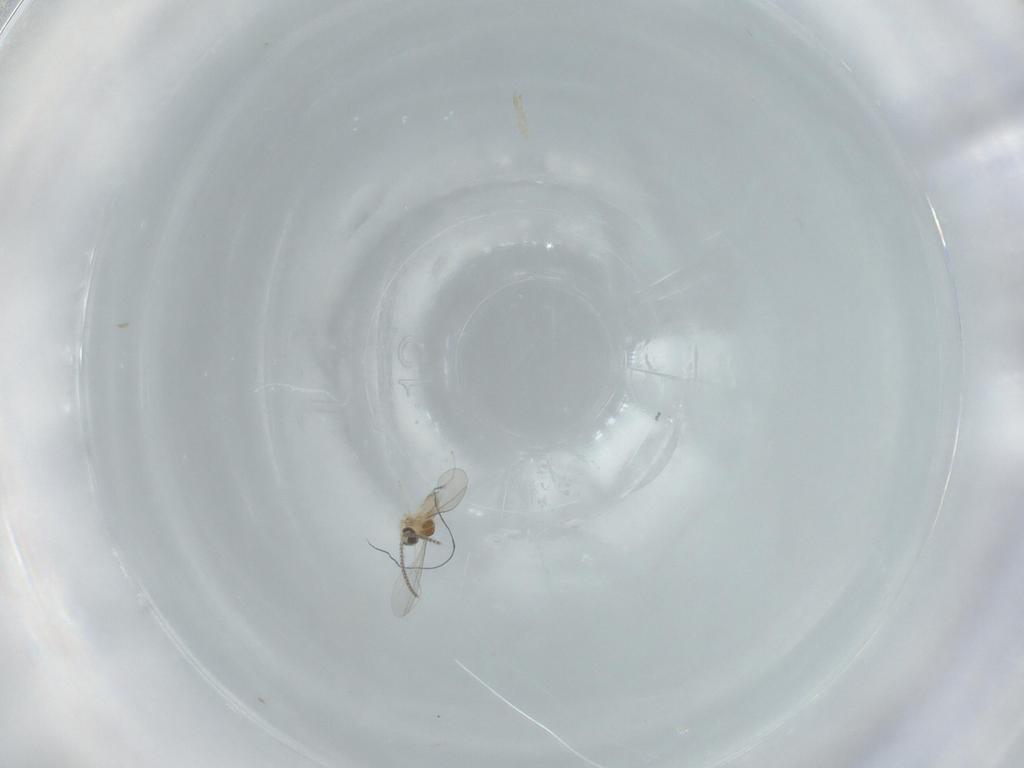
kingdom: Animalia
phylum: Arthropoda
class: Insecta
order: Diptera
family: Cecidomyiidae
